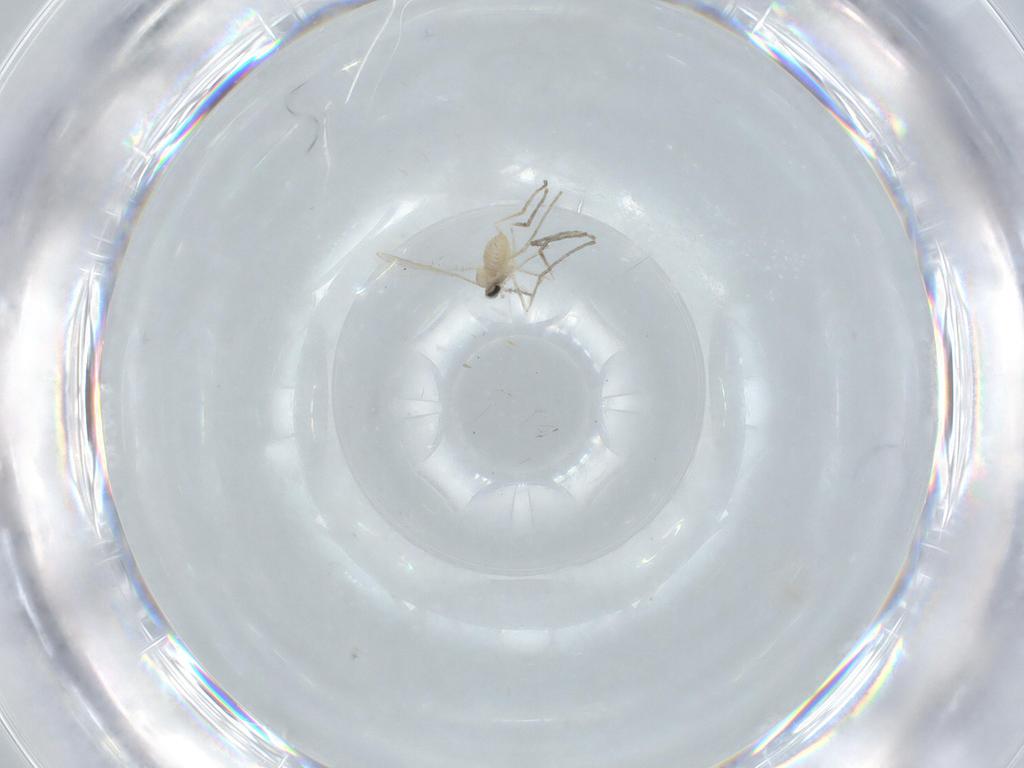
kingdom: Animalia
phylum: Arthropoda
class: Insecta
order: Diptera
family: Cecidomyiidae
